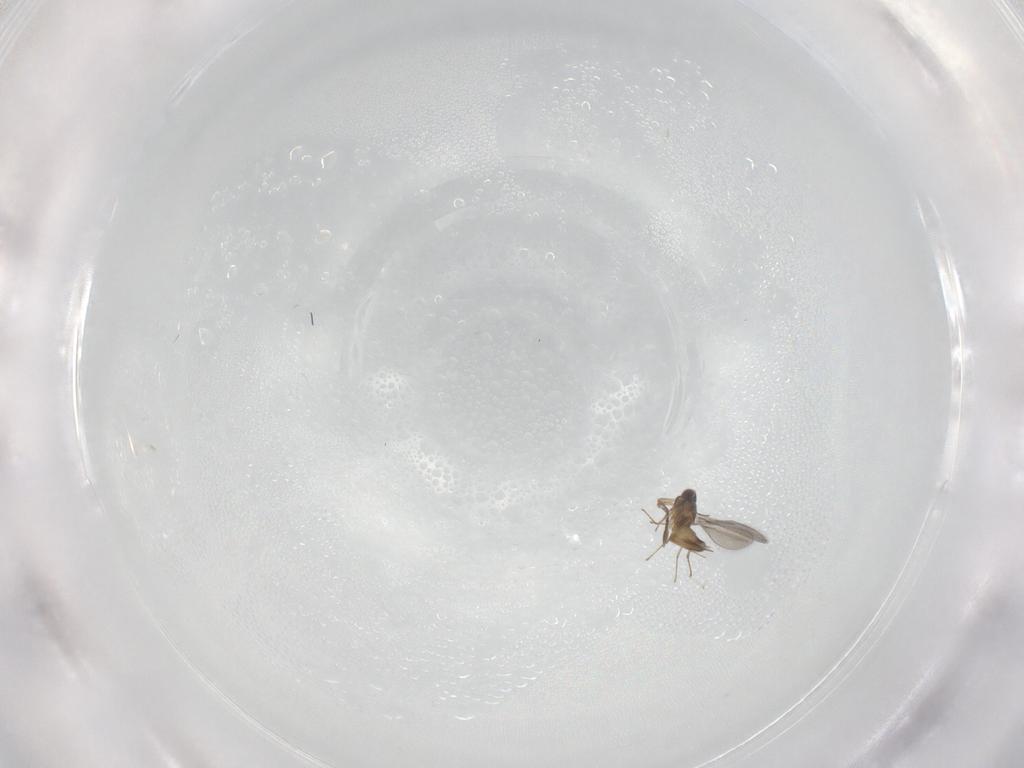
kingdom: Animalia
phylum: Arthropoda
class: Insecta
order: Hymenoptera
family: Mymaridae
